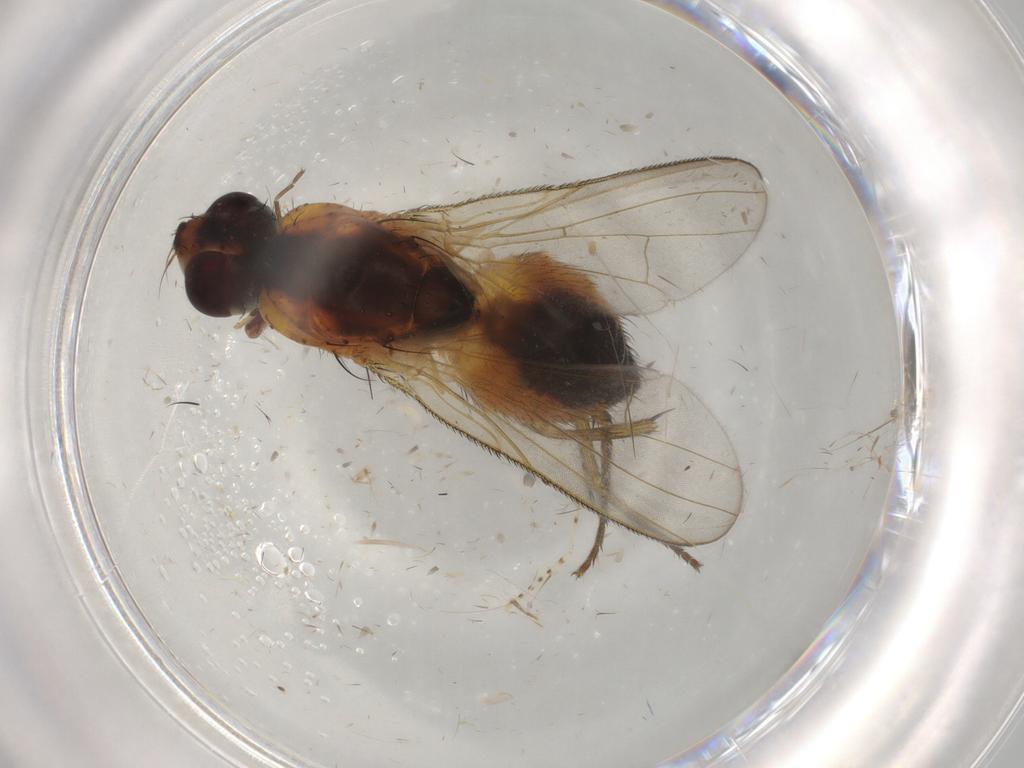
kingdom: Animalia
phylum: Arthropoda
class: Insecta
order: Diptera
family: Muscidae
